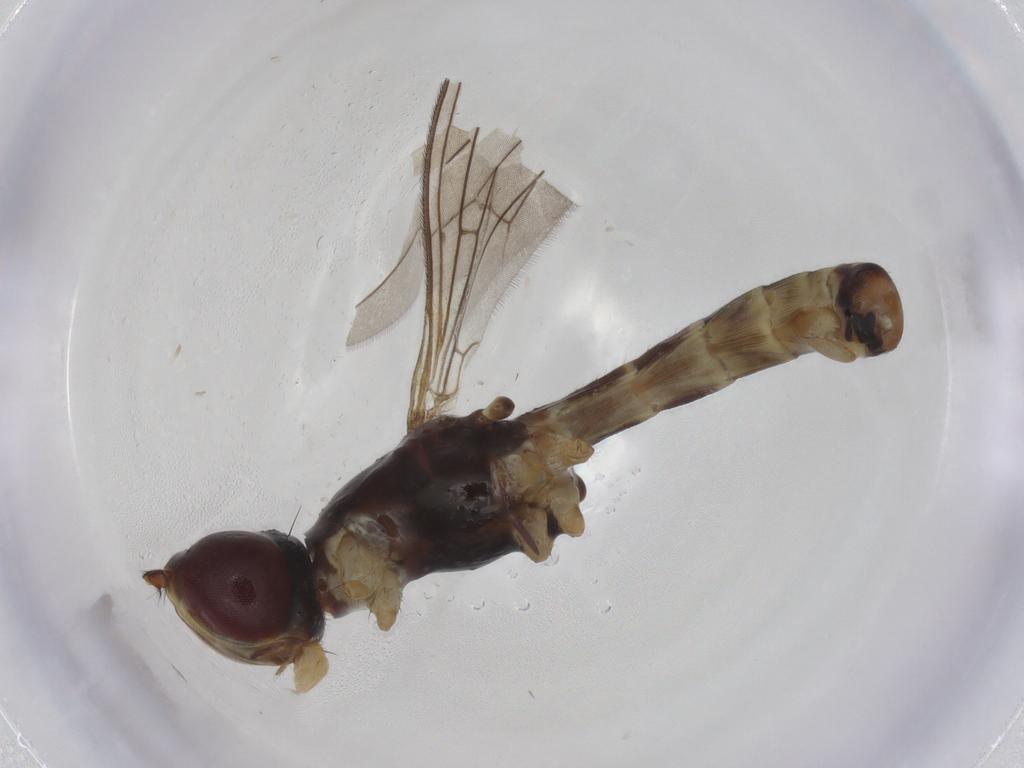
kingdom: Animalia
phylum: Arthropoda
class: Insecta
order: Diptera
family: Micropezidae
